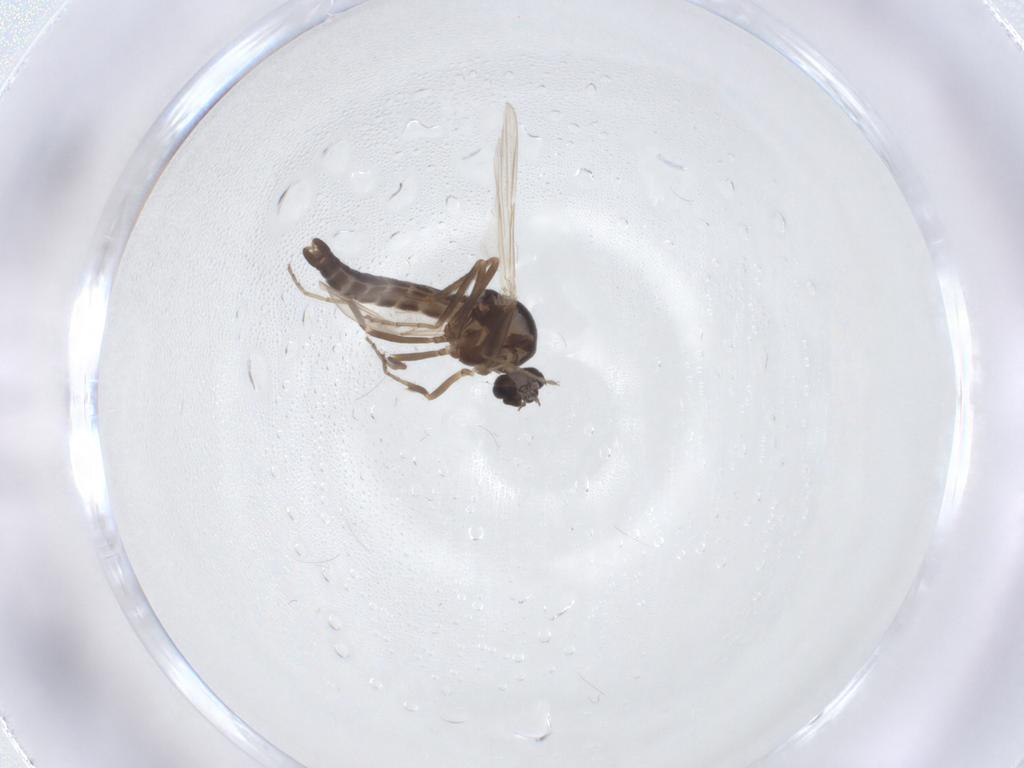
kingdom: Animalia
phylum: Arthropoda
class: Insecta
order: Diptera
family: Ceratopogonidae
